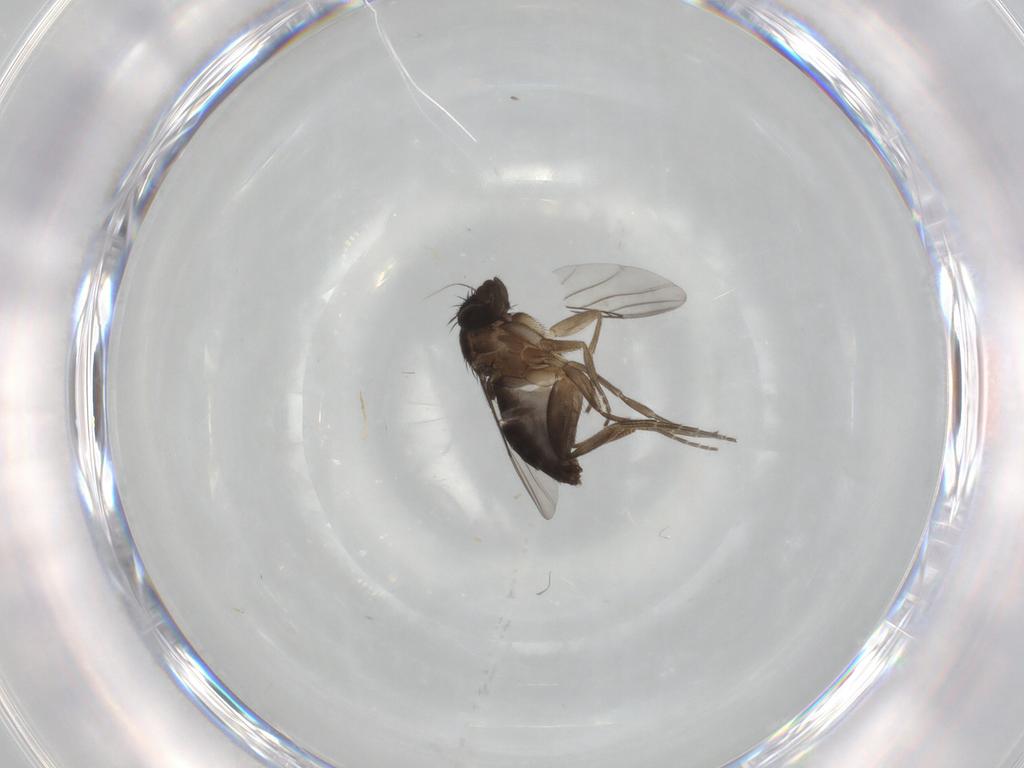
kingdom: Animalia
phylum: Arthropoda
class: Insecta
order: Diptera
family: Phoridae
